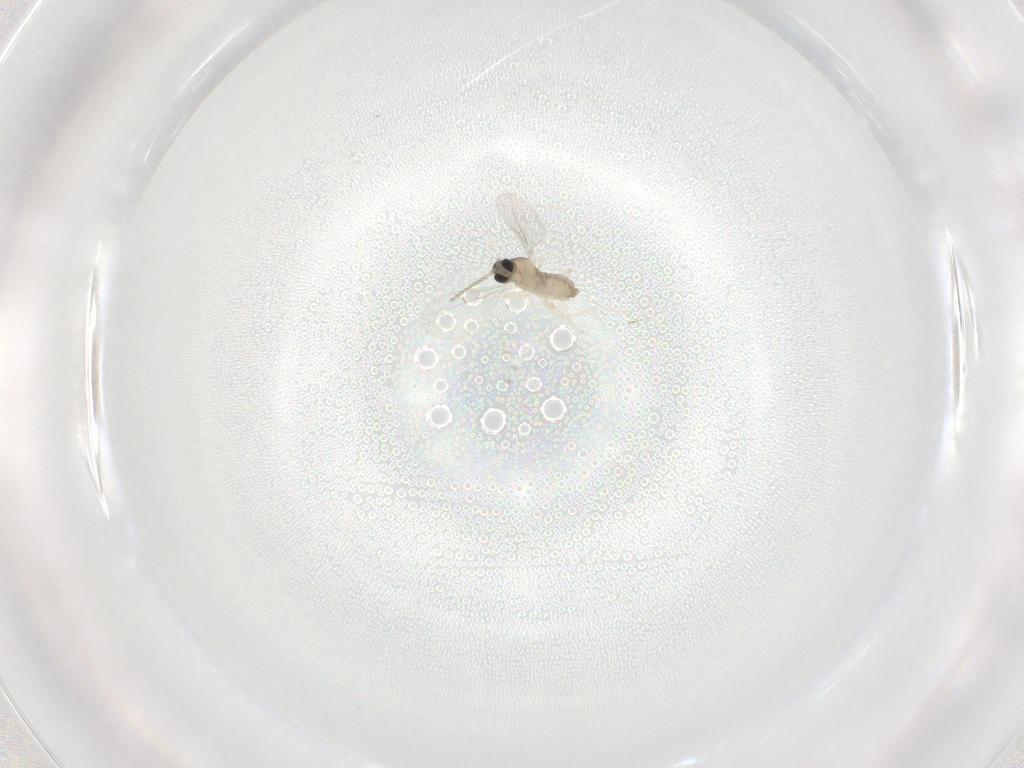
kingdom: Animalia
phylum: Arthropoda
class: Insecta
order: Diptera
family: Cecidomyiidae
